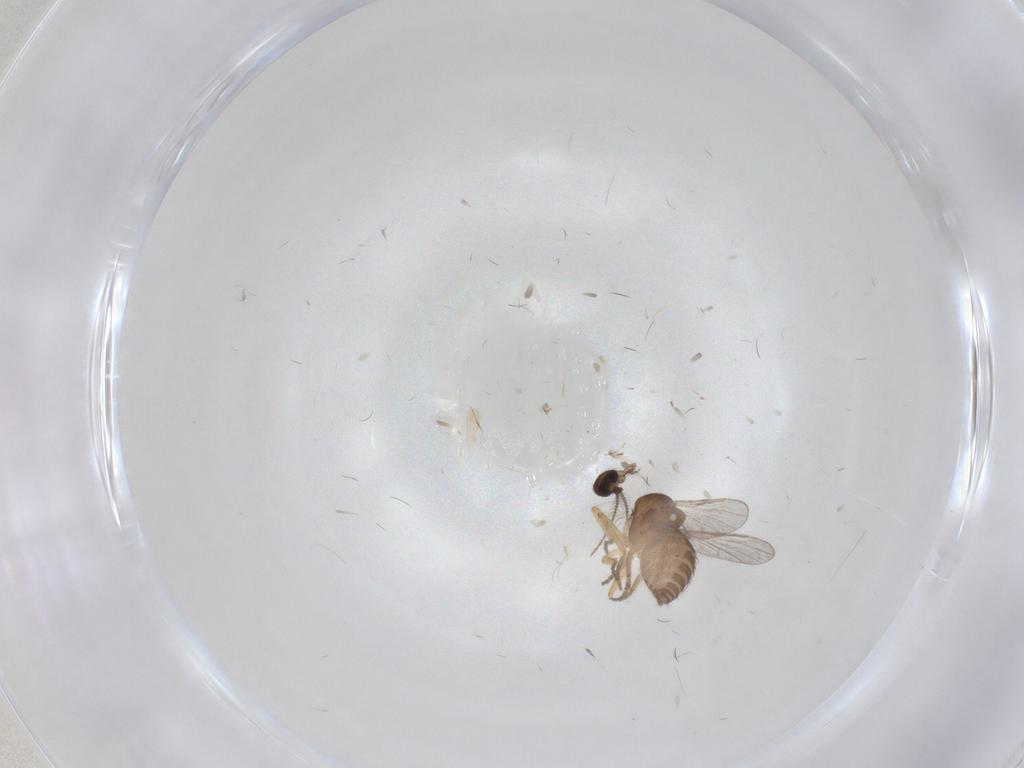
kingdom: Animalia
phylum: Arthropoda
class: Insecta
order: Diptera
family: Ceratopogonidae
